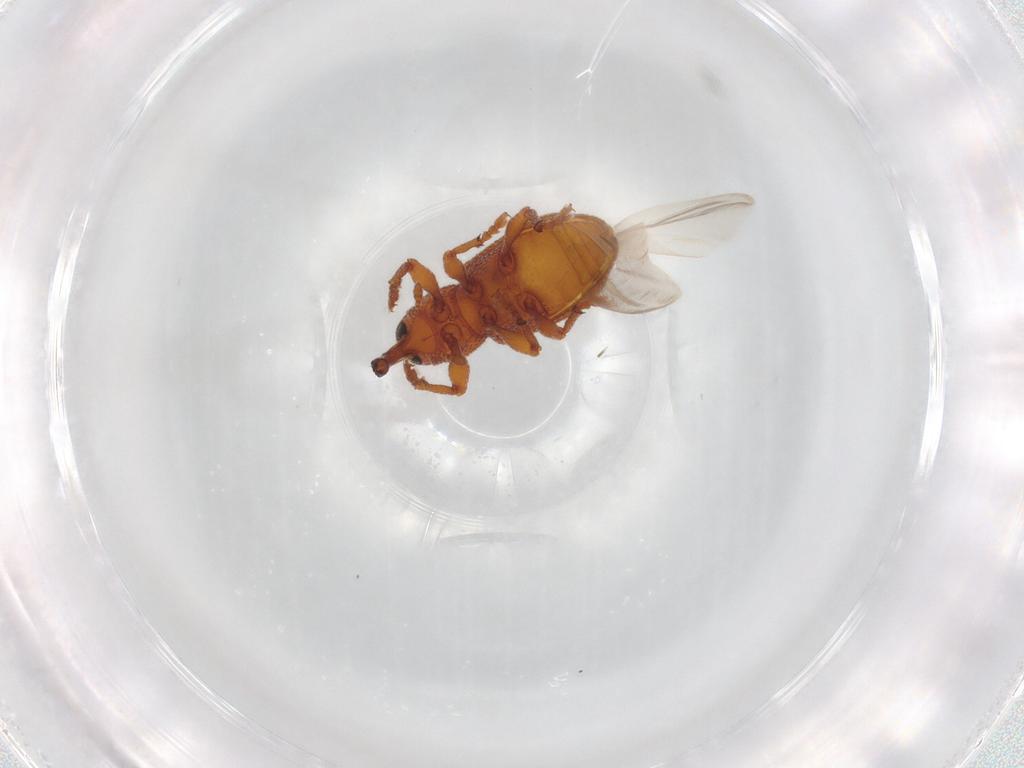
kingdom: Animalia
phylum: Arthropoda
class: Insecta
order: Coleoptera
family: Curculionidae
